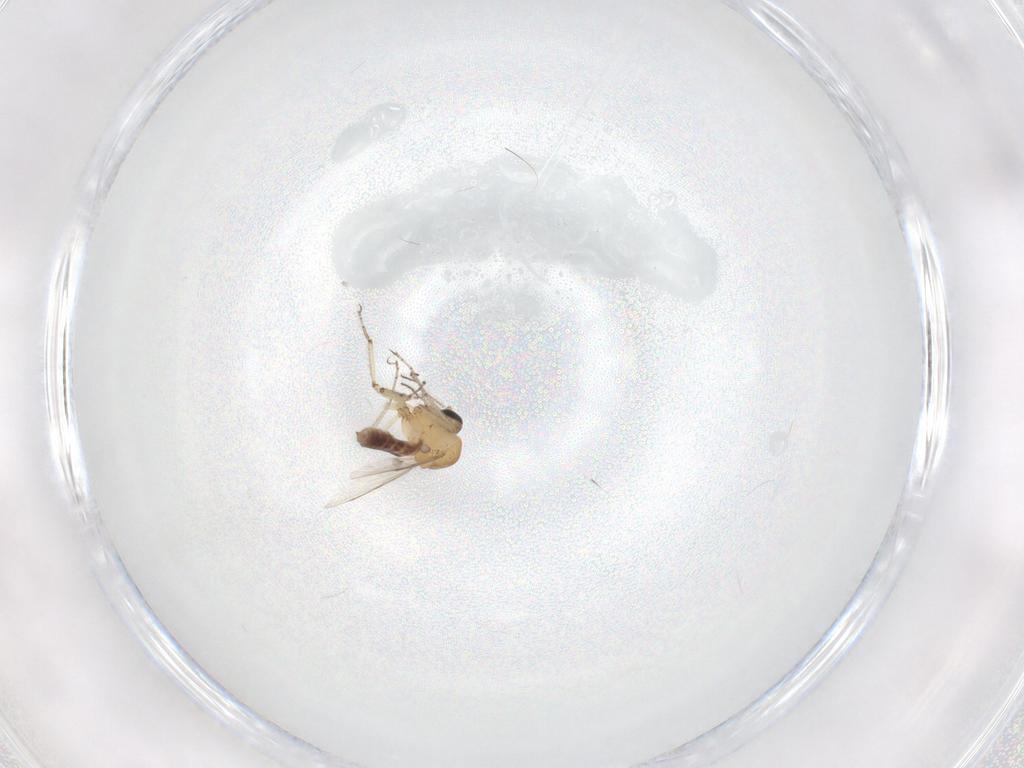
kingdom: Animalia
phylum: Arthropoda
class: Insecta
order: Diptera
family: Ceratopogonidae
